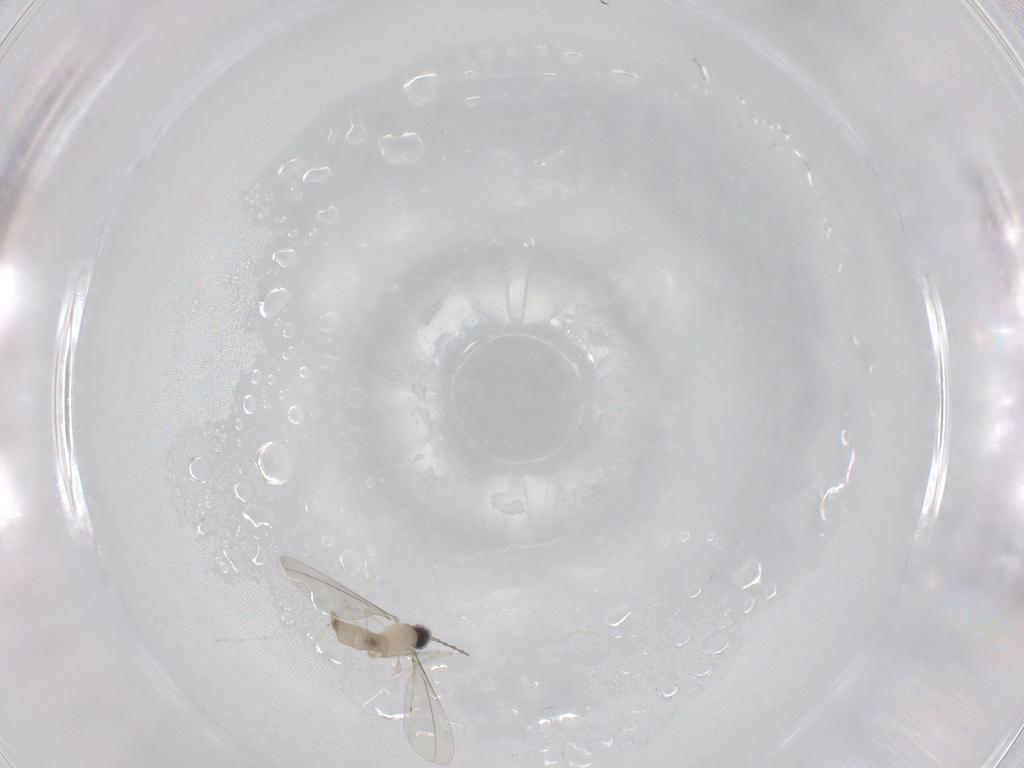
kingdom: Animalia
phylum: Arthropoda
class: Insecta
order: Diptera
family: Cecidomyiidae
